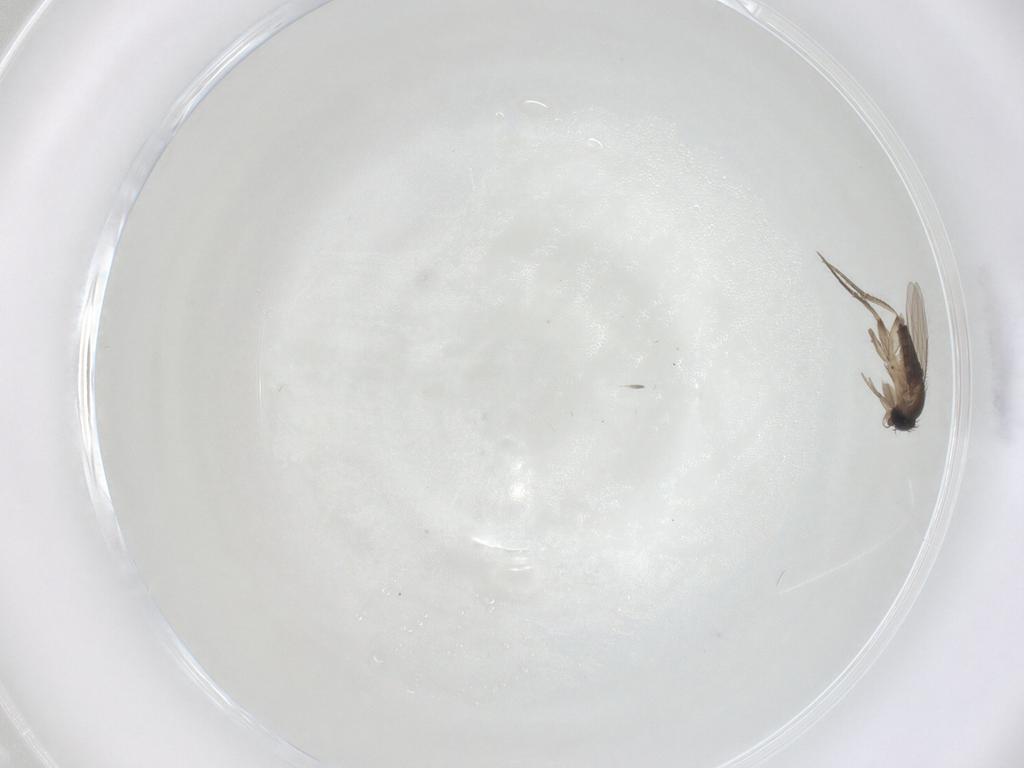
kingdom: Animalia
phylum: Arthropoda
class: Insecta
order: Diptera
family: Phoridae
